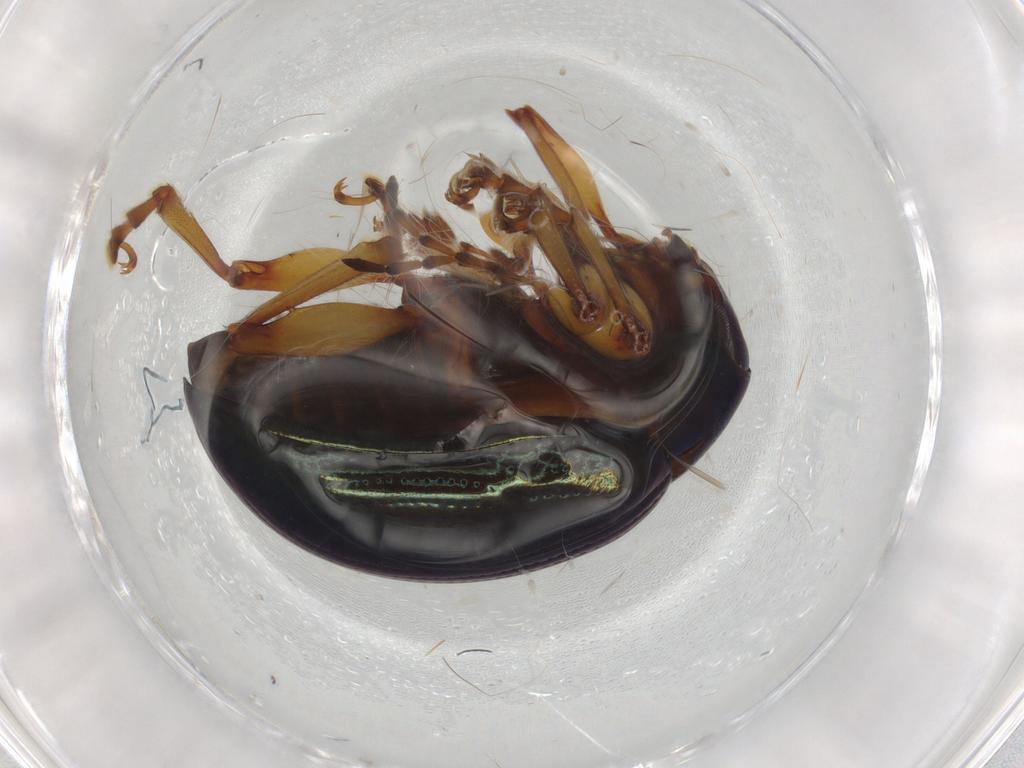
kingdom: Animalia
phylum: Arthropoda
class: Insecta
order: Coleoptera
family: Chrysomelidae
